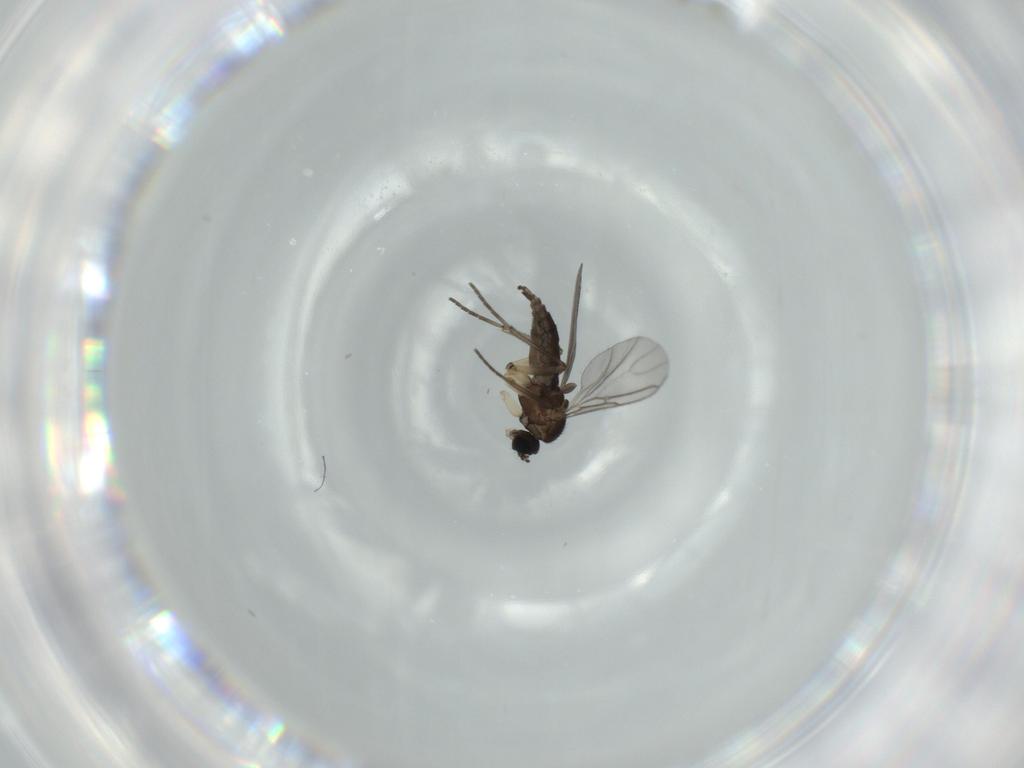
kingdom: Animalia
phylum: Arthropoda
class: Insecta
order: Diptera
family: Sciaridae
